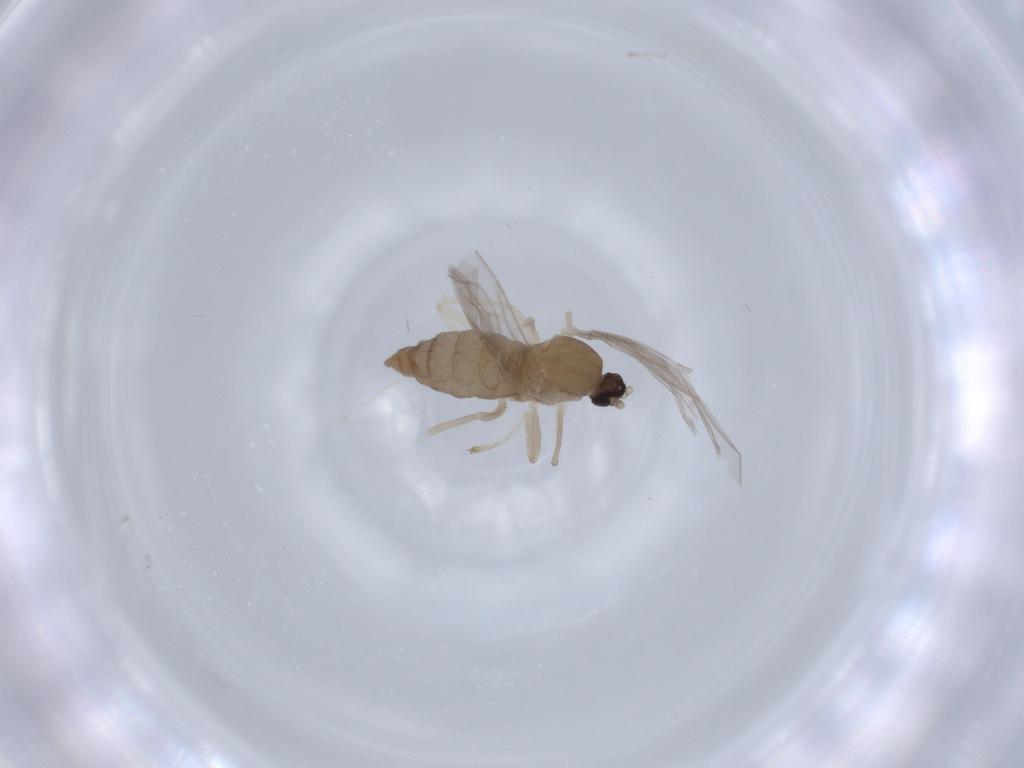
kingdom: Animalia
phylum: Arthropoda
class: Insecta
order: Diptera
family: Cecidomyiidae
